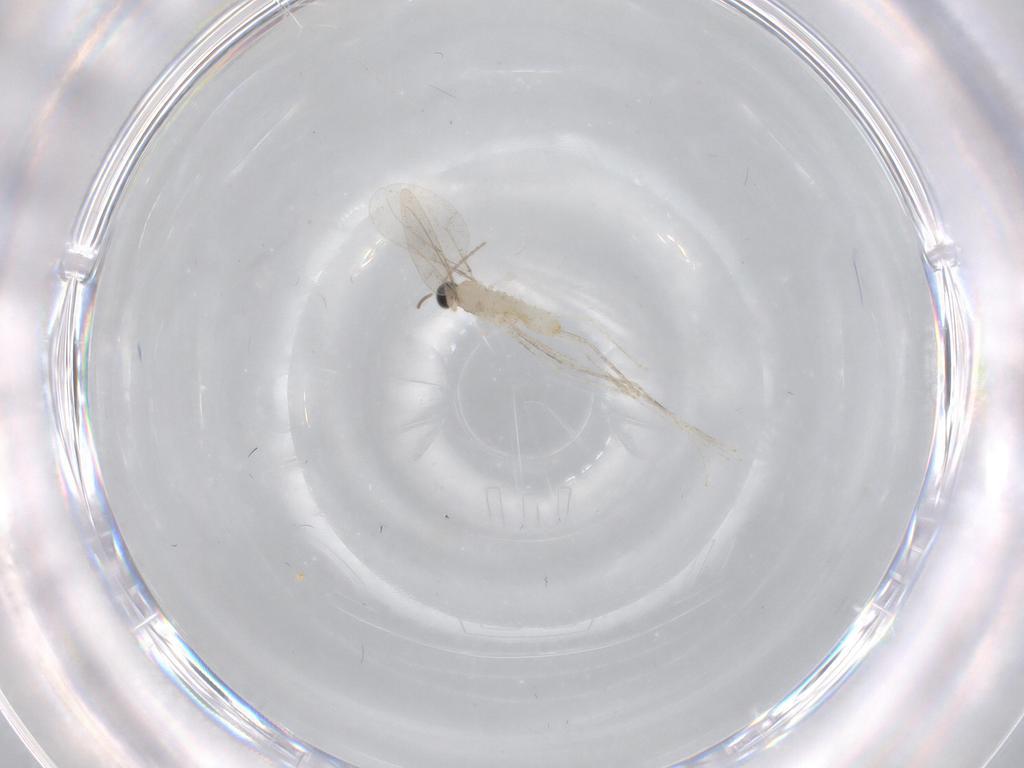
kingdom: Animalia
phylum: Arthropoda
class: Insecta
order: Diptera
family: Cecidomyiidae
